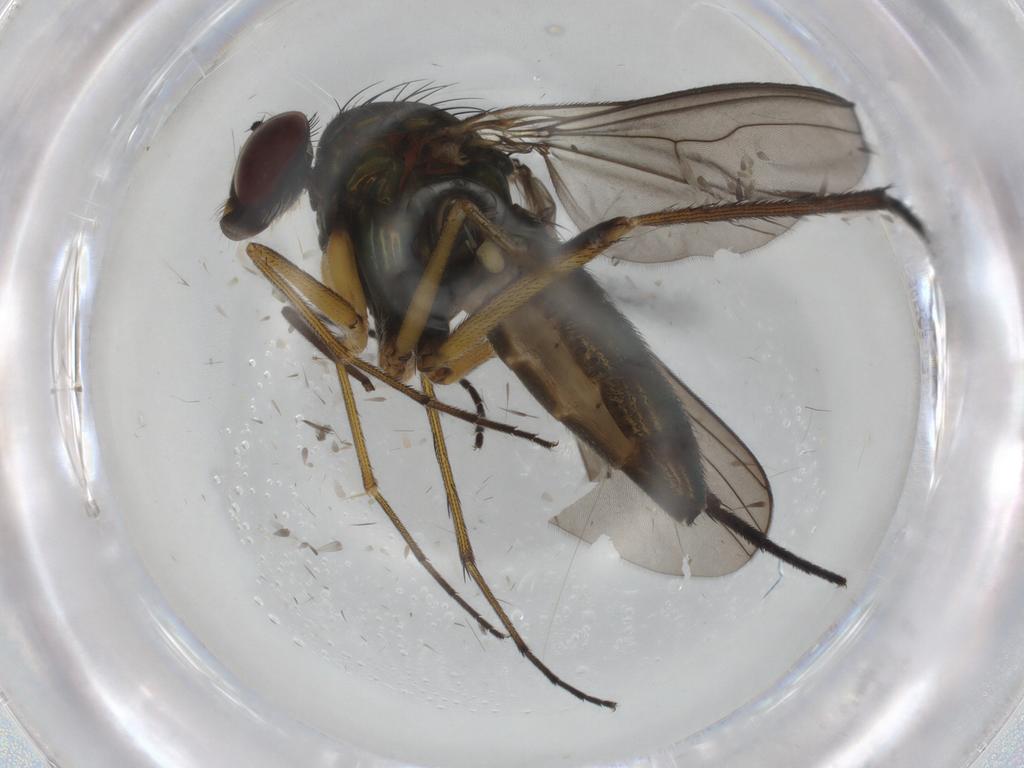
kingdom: Animalia
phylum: Arthropoda
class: Insecta
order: Diptera
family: Dolichopodidae
